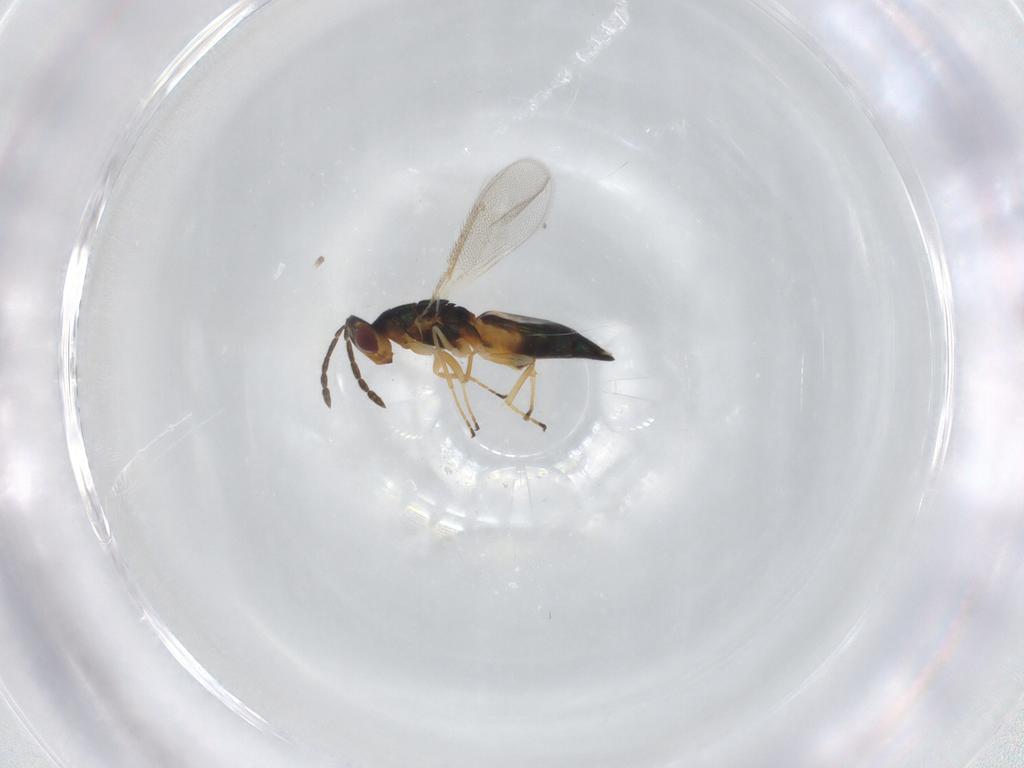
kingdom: Animalia
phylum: Arthropoda
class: Insecta
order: Hymenoptera
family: Eulophidae
